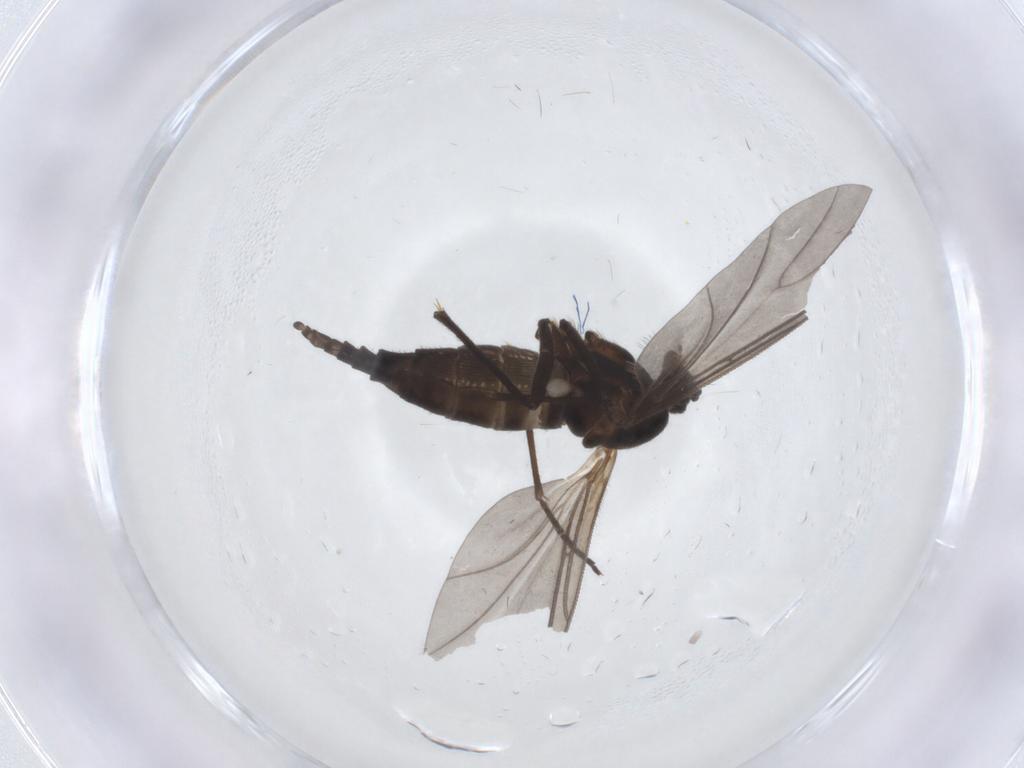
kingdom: Animalia
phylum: Arthropoda
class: Insecta
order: Diptera
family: Sciaridae
